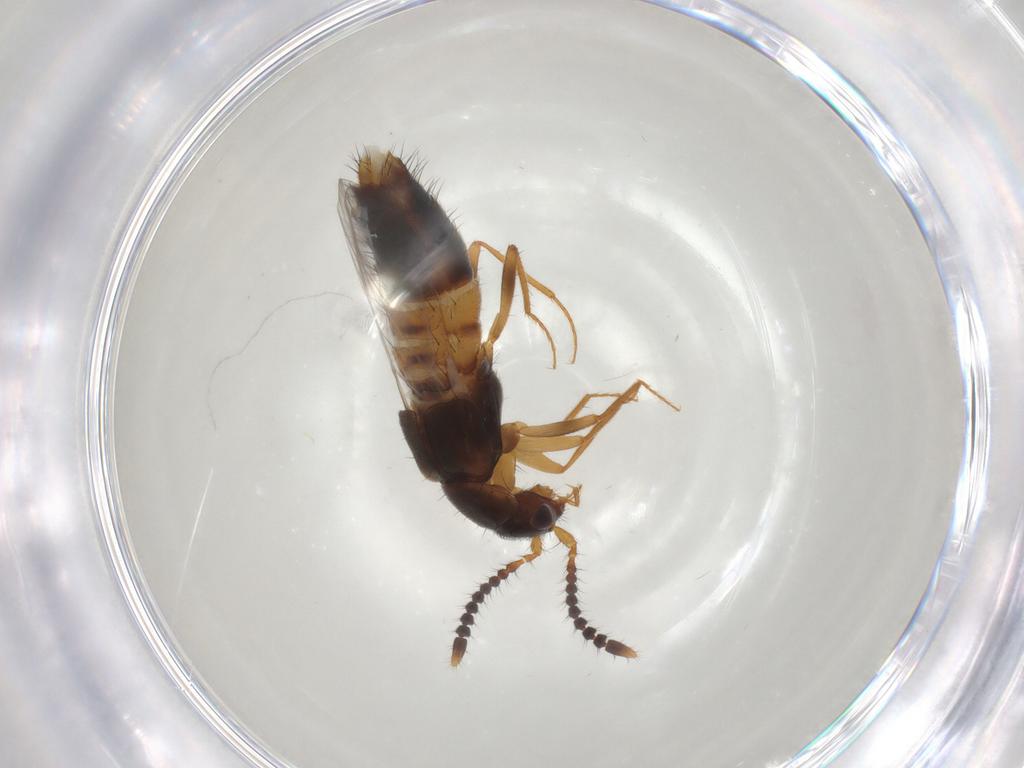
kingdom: Animalia
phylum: Arthropoda
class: Insecta
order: Coleoptera
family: Staphylinidae
